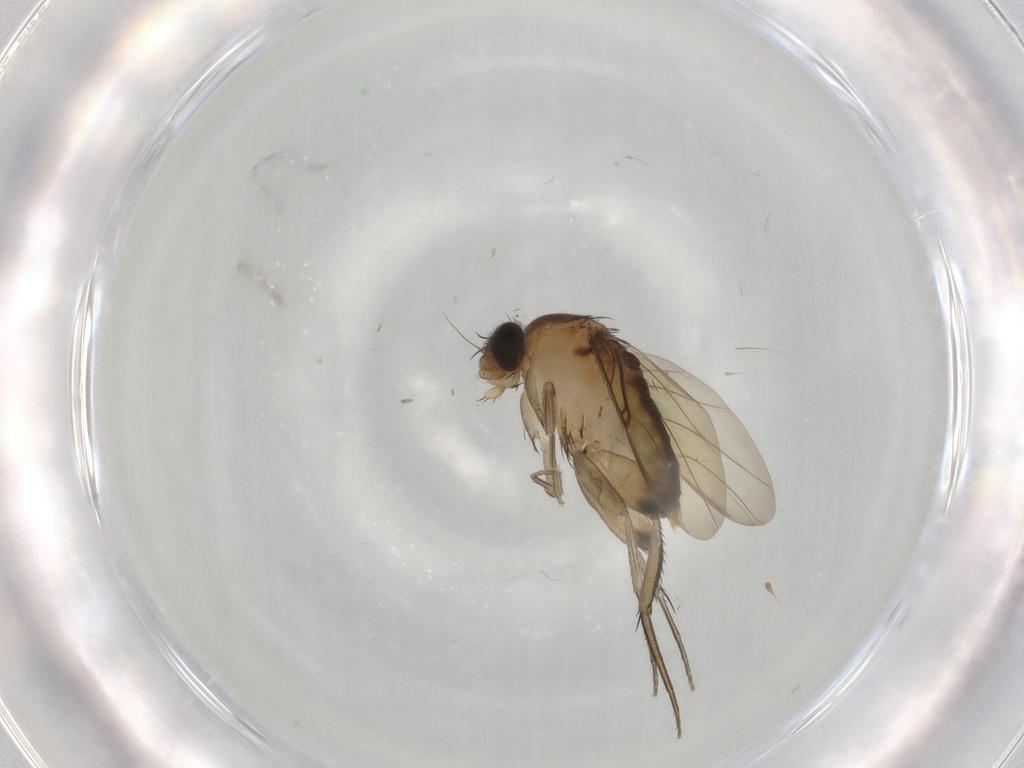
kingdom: Animalia
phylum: Arthropoda
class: Insecta
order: Diptera
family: Phoridae
